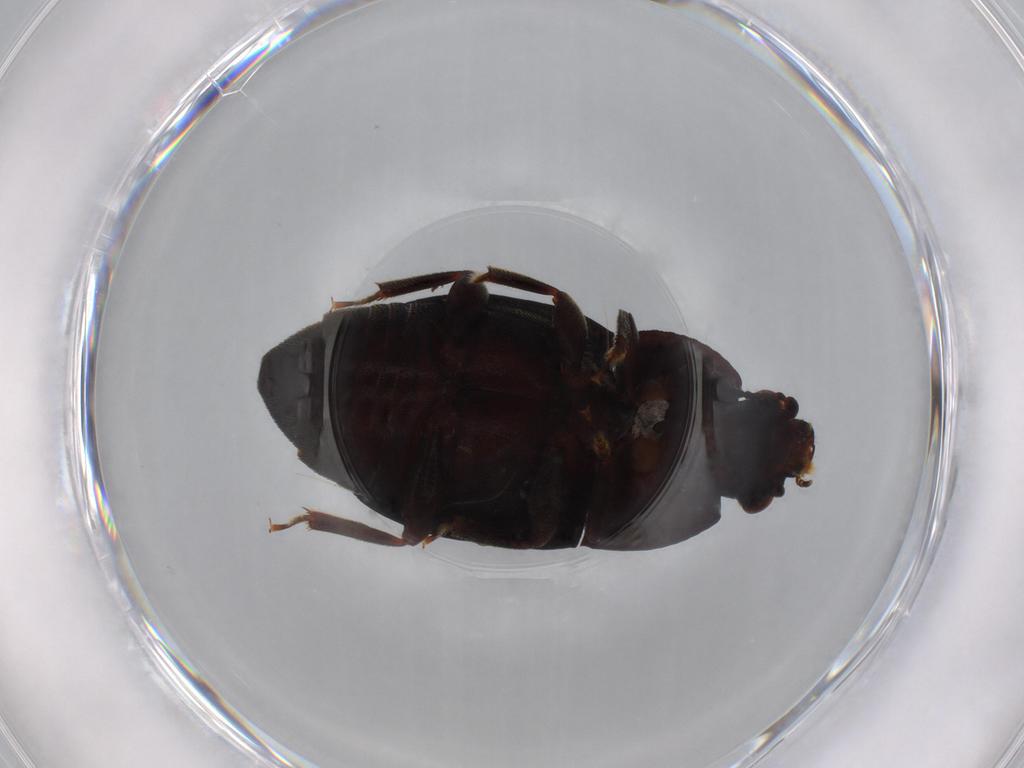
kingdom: Animalia
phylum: Arthropoda
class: Insecta
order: Coleoptera
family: Nitidulidae
